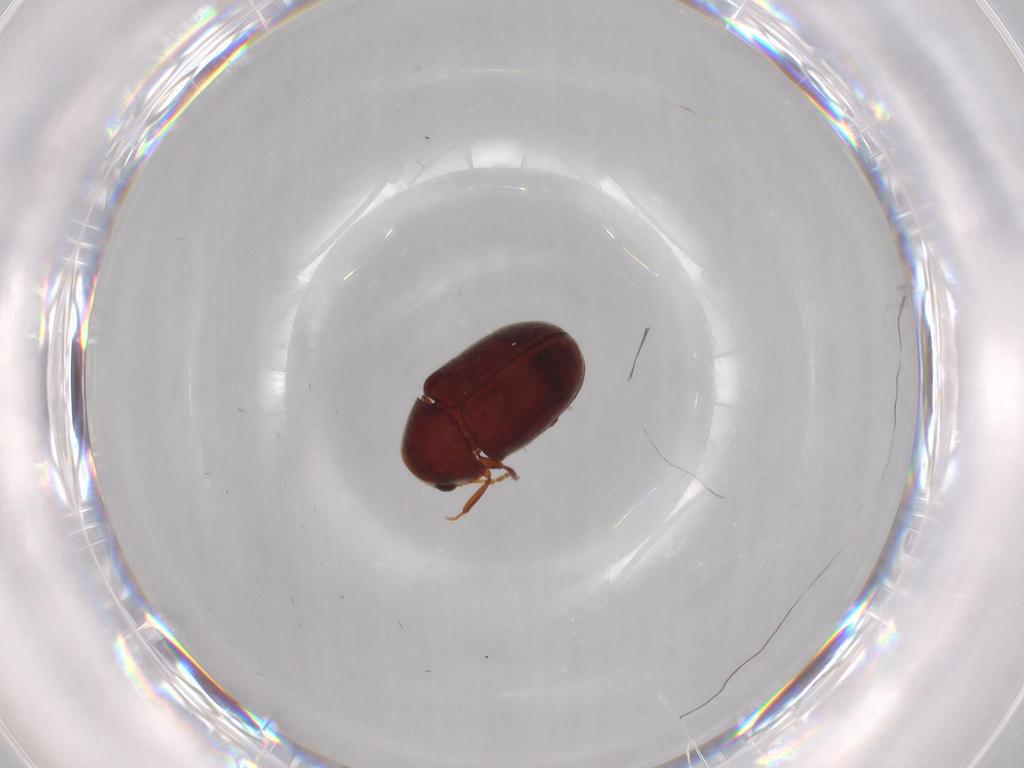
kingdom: Animalia
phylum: Arthropoda
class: Insecta
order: Coleoptera
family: Ptinidae
